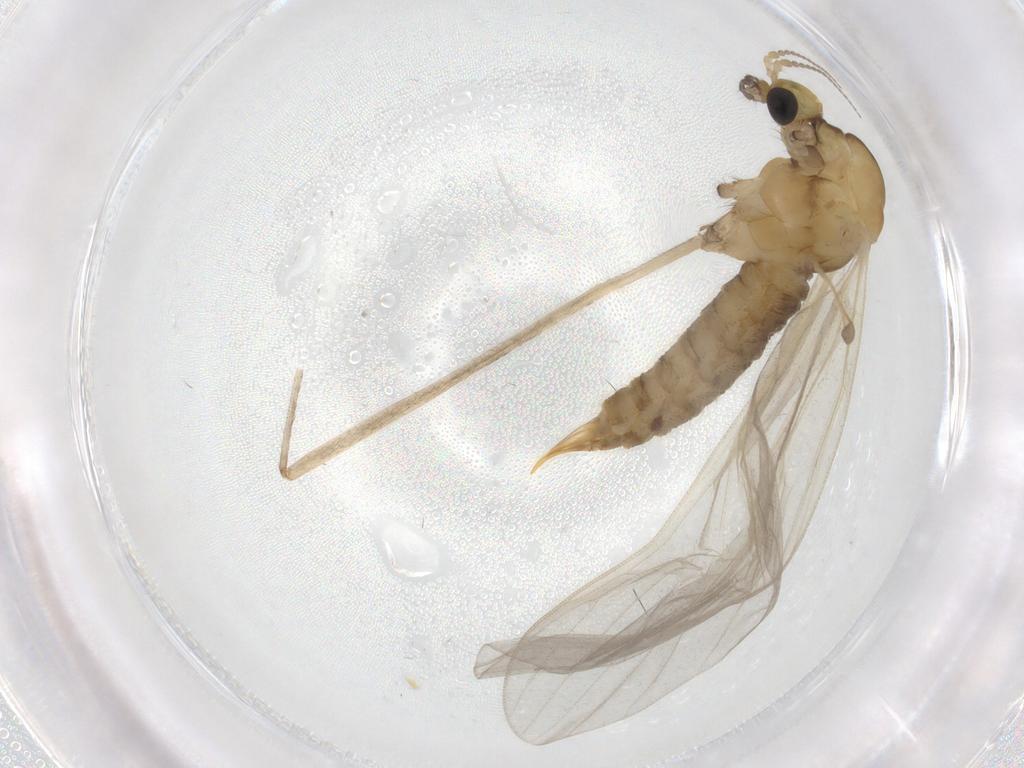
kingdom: Animalia
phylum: Arthropoda
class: Insecta
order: Diptera
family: Limoniidae
